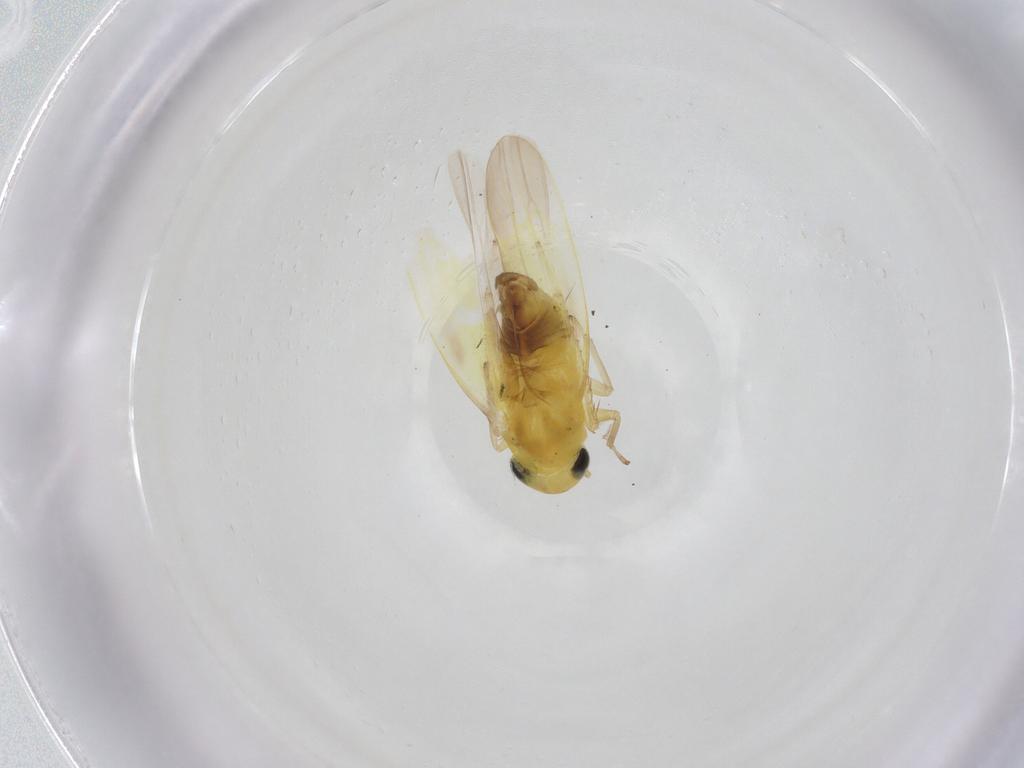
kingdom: Animalia
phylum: Arthropoda
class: Insecta
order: Hemiptera
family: Cicadellidae
